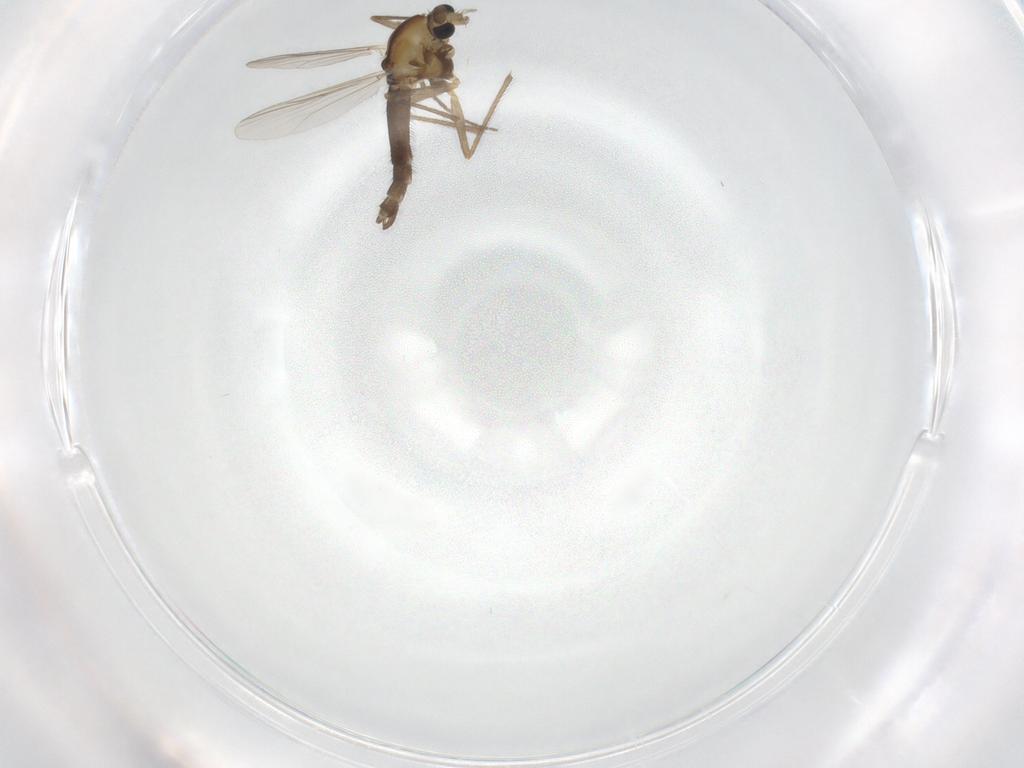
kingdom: Animalia
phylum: Arthropoda
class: Insecta
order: Diptera
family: Chironomidae
